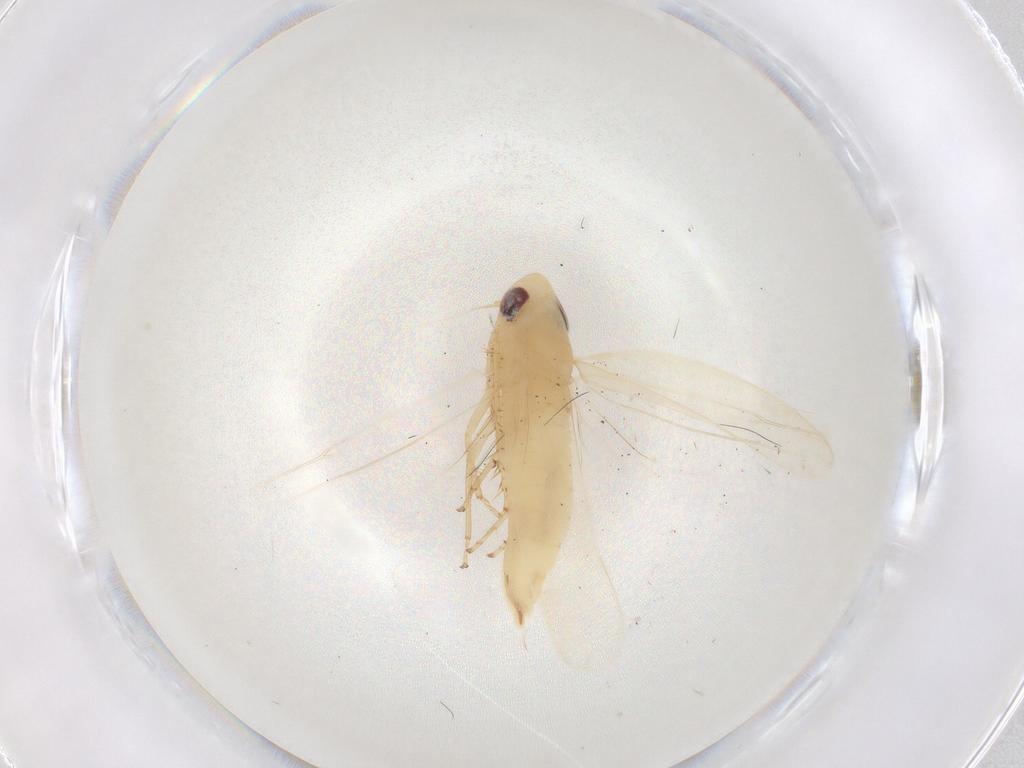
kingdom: Animalia
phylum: Arthropoda
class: Insecta
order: Hemiptera
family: Cicadellidae
